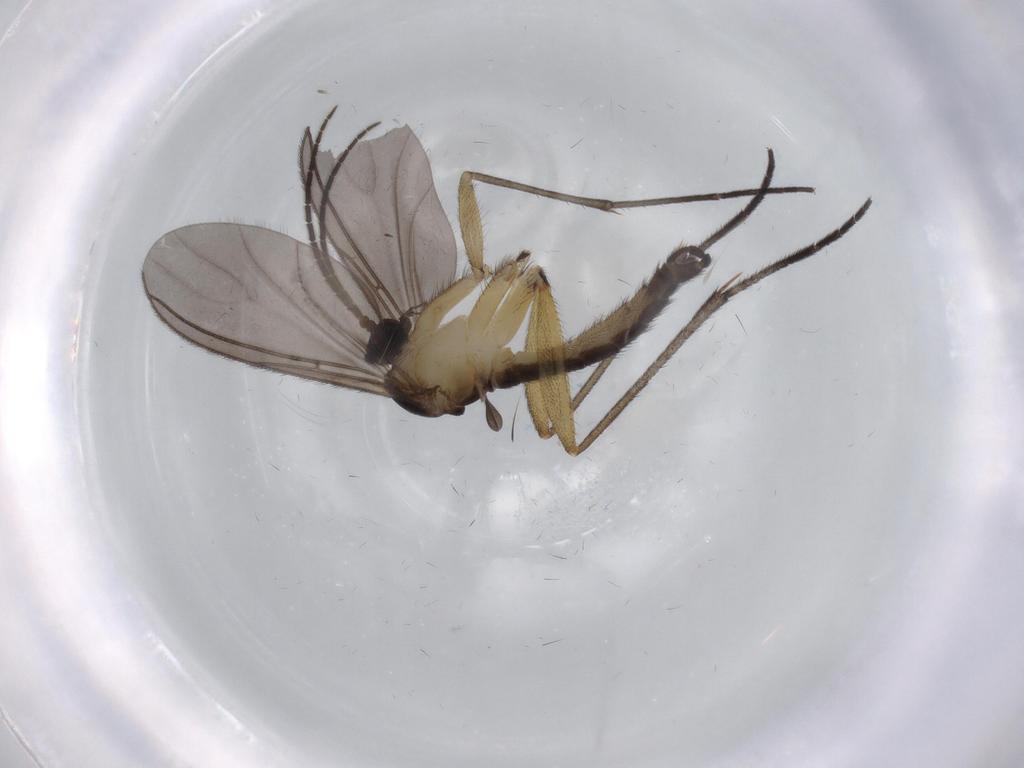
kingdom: Animalia
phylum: Arthropoda
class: Insecta
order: Diptera
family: Sciaridae
